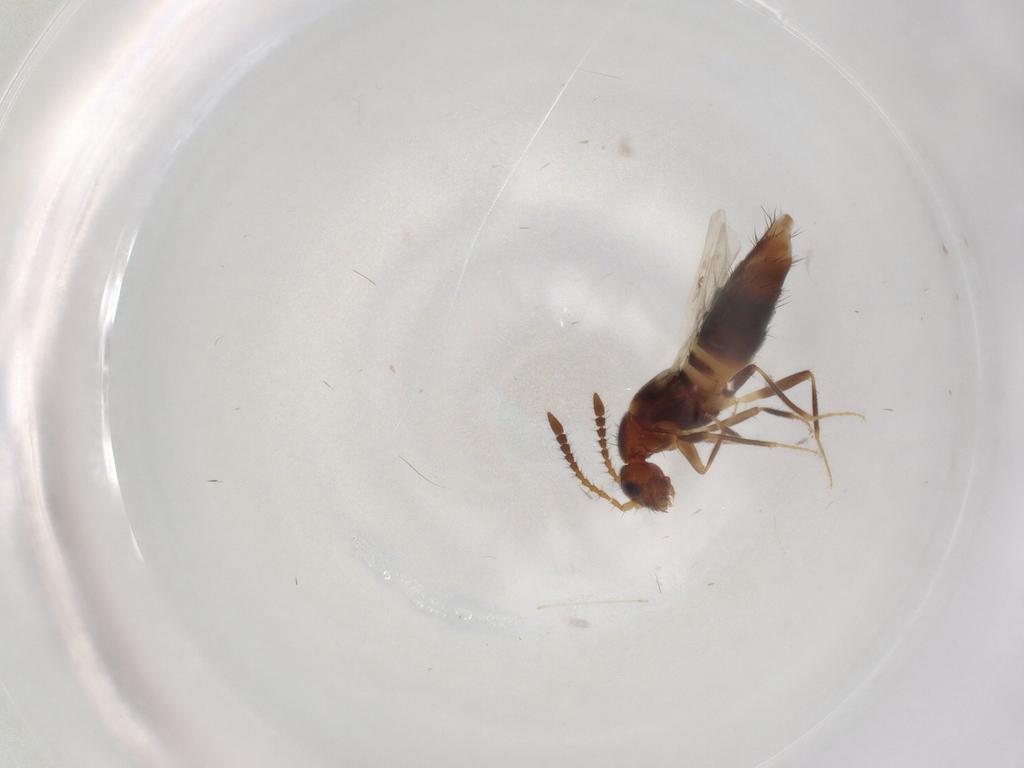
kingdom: Animalia
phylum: Arthropoda
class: Insecta
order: Coleoptera
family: Staphylinidae
